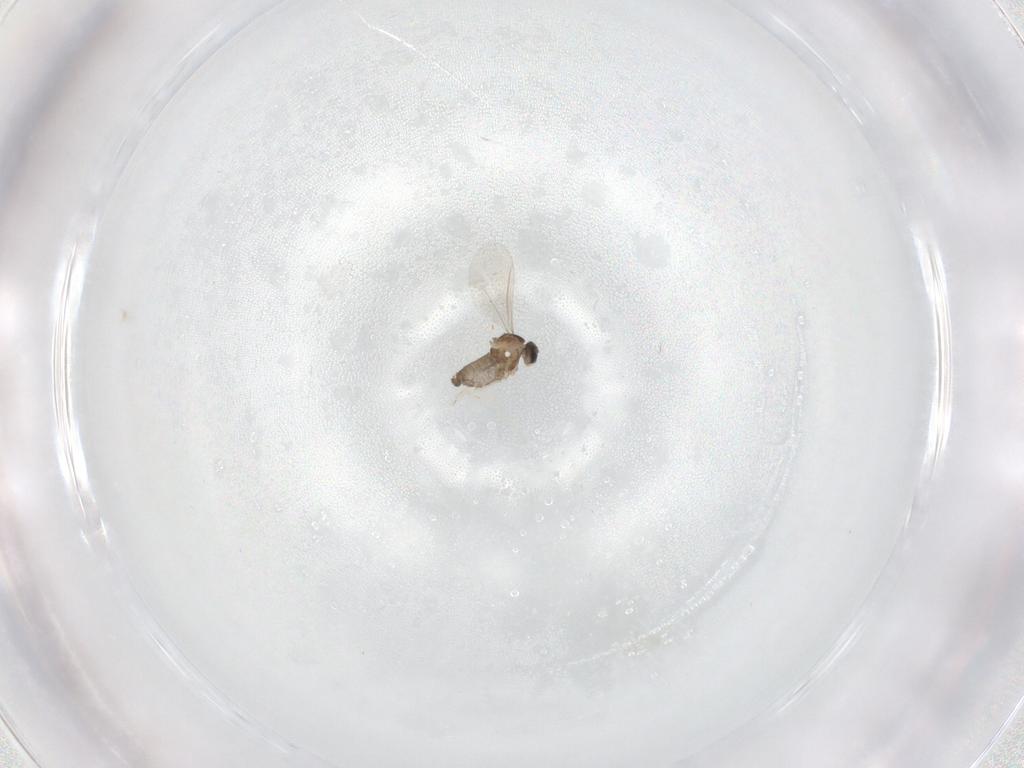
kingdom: Animalia
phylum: Arthropoda
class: Insecta
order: Diptera
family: Cecidomyiidae
